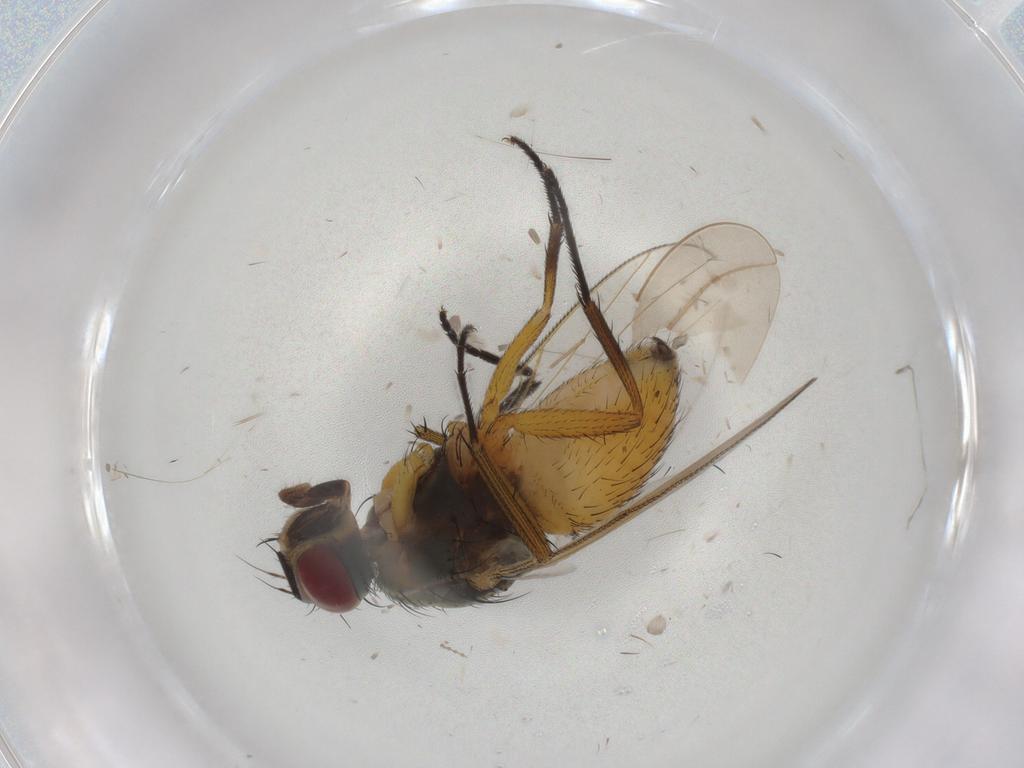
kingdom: Animalia
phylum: Arthropoda
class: Insecta
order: Diptera
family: Muscidae
